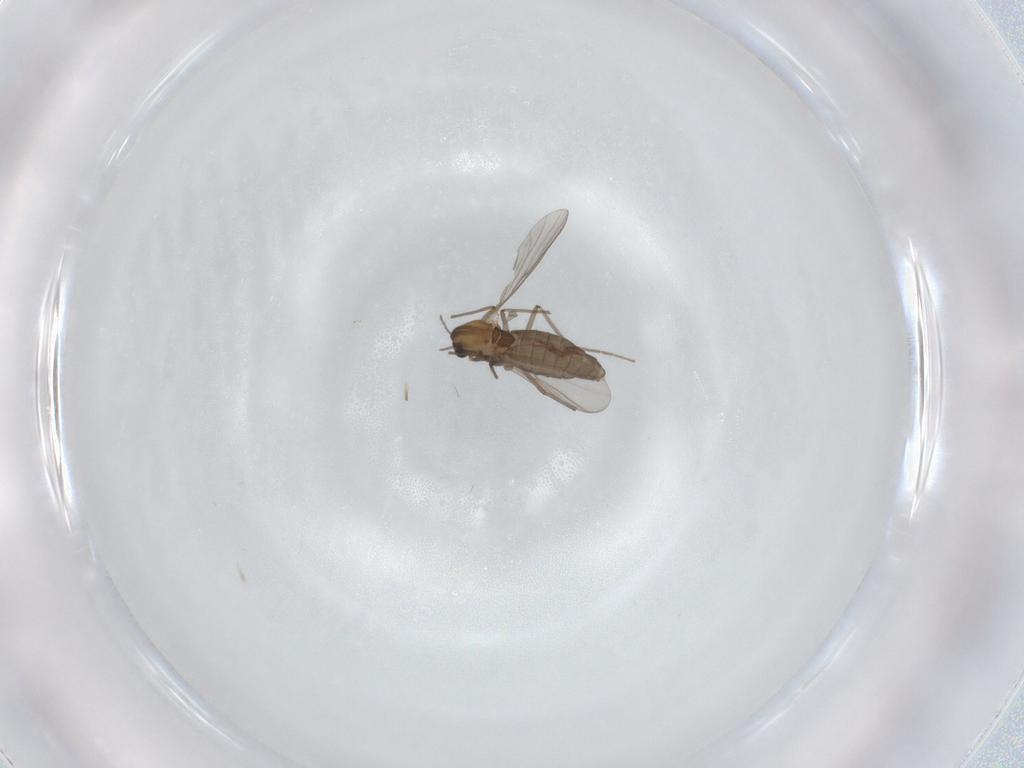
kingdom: Animalia
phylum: Arthropoda
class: Insecta
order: Diptera
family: Chironomidae
